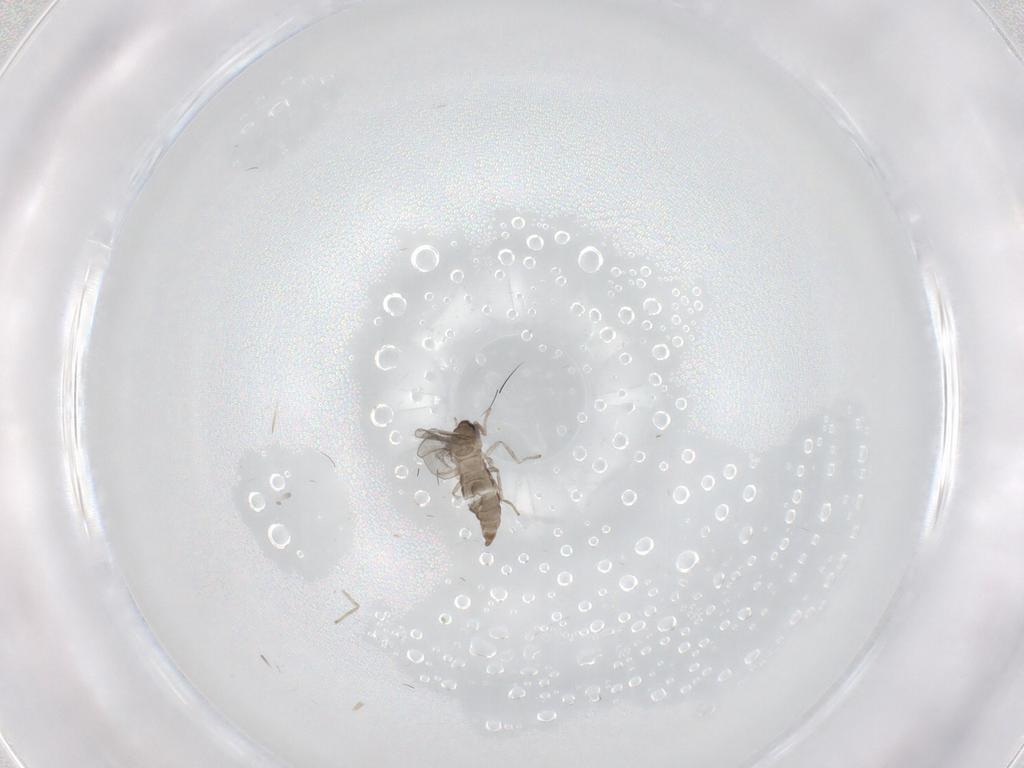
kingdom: Animalia
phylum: Arthropoda
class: Insecta
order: Diptera
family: Cecidomyiidae
